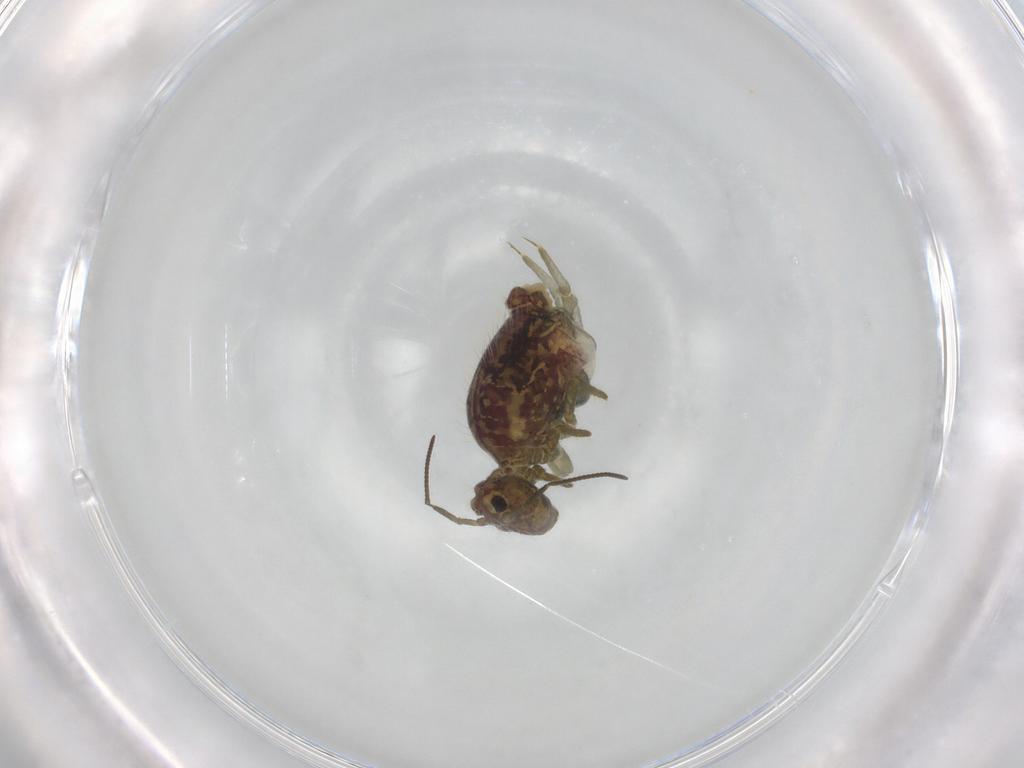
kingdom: Animalia
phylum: Arthropoda
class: Collembola
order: Symphypleona
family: Sminthuridae
